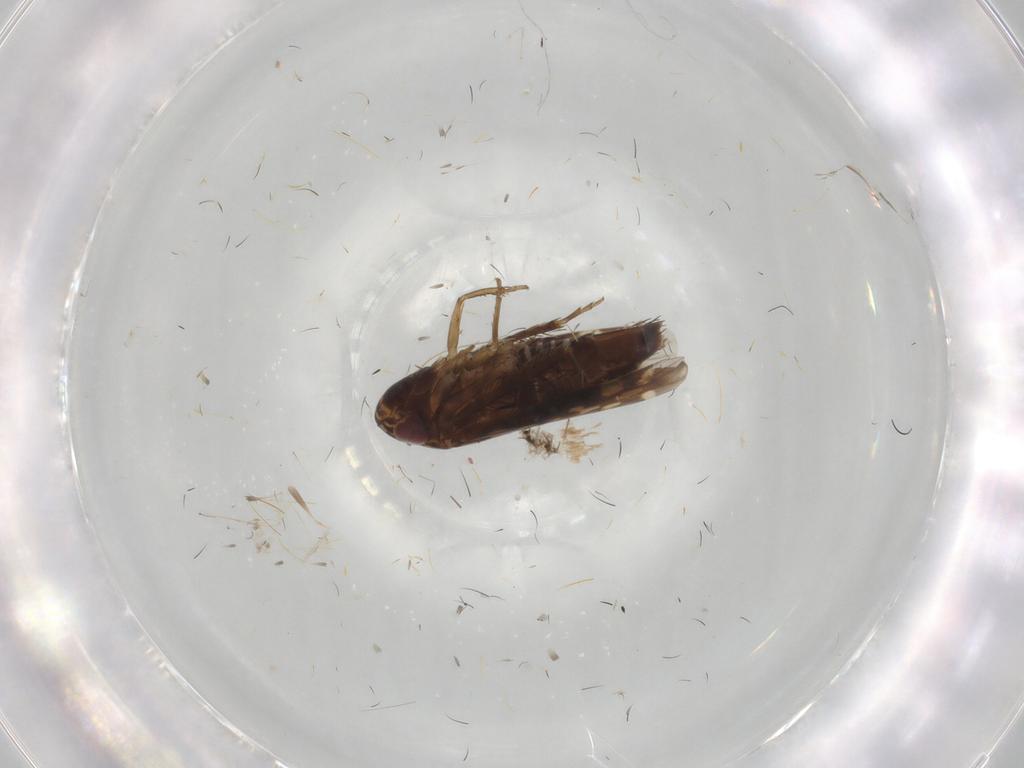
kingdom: Animalia
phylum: Arthropoda
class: Insecta
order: Hemiptera
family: Cicadellidae
